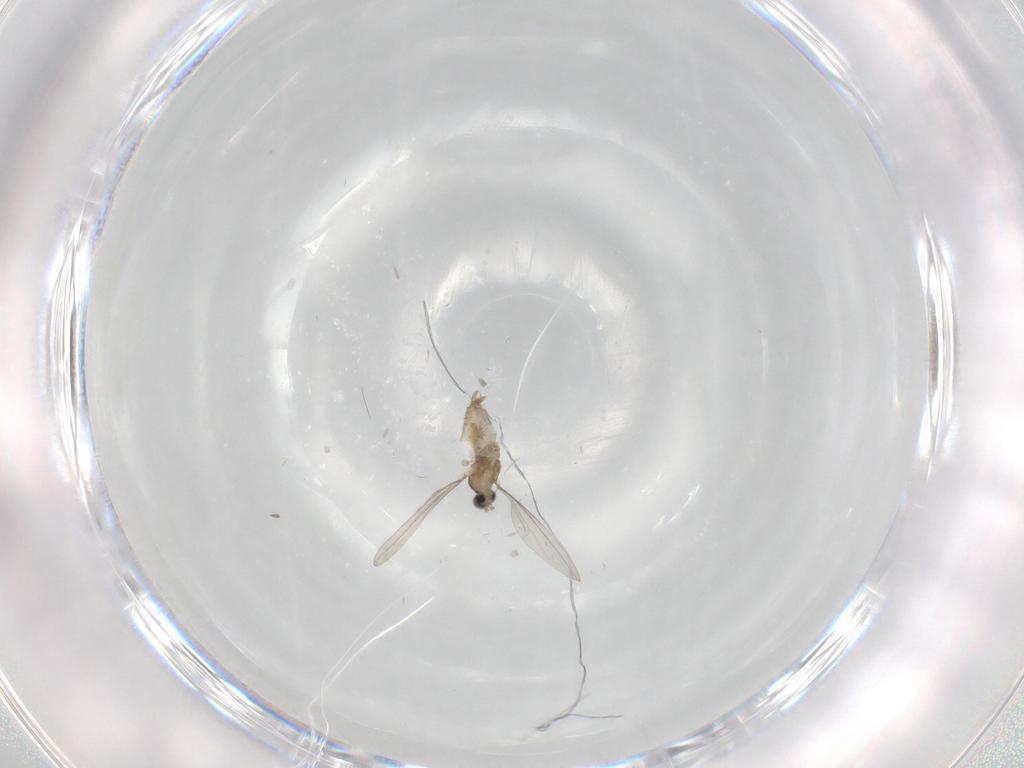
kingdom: Animalia
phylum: Arthropoda
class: Insecta
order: Diptera
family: Cecidomyiidae
